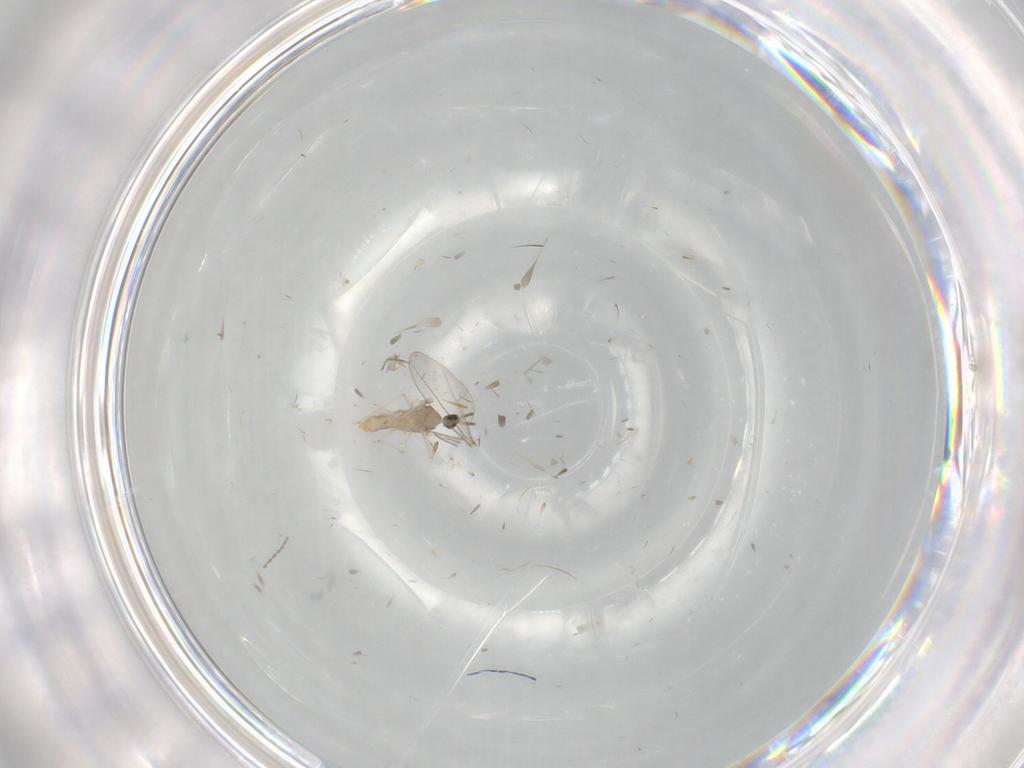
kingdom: Animalia
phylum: Arthropoda
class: Insecta
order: Diptera
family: Cecidomyiidae
